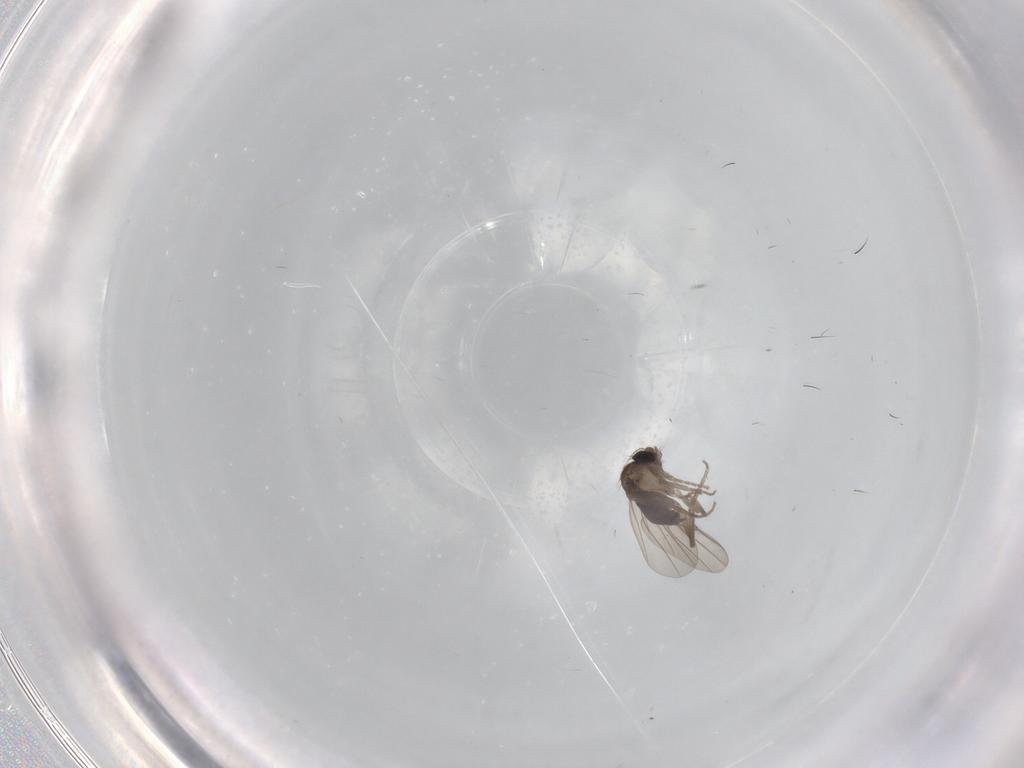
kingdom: Animalia
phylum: Arthropoda
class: Insecta
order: Diptera
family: Phoridae
